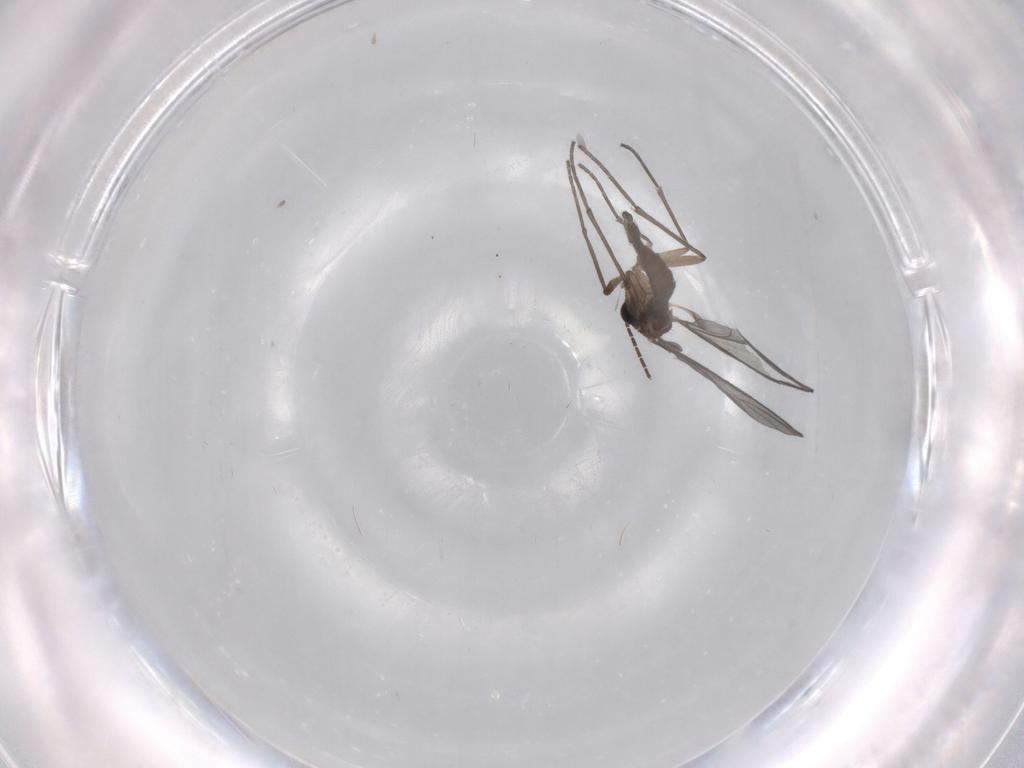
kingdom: Animalia
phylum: Arthropoda
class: Insecta
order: Diptera
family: Sciaridae
